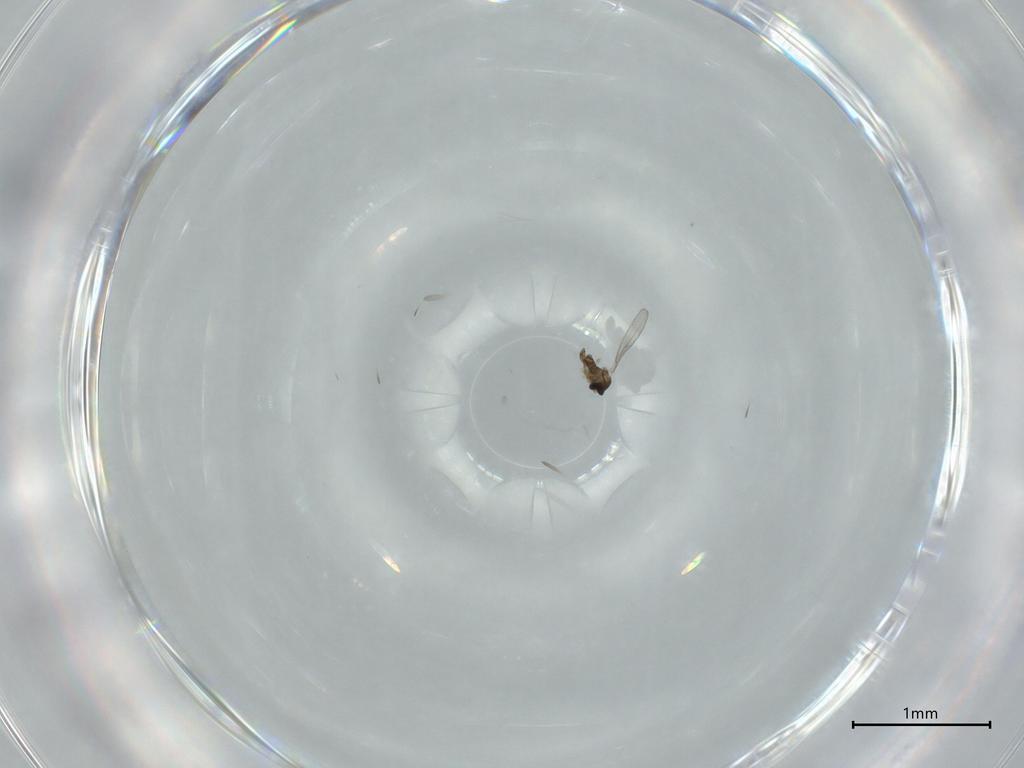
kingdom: Animalia
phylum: Arthropoda
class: Insecta
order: Diptera
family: Cecidomyiidae
